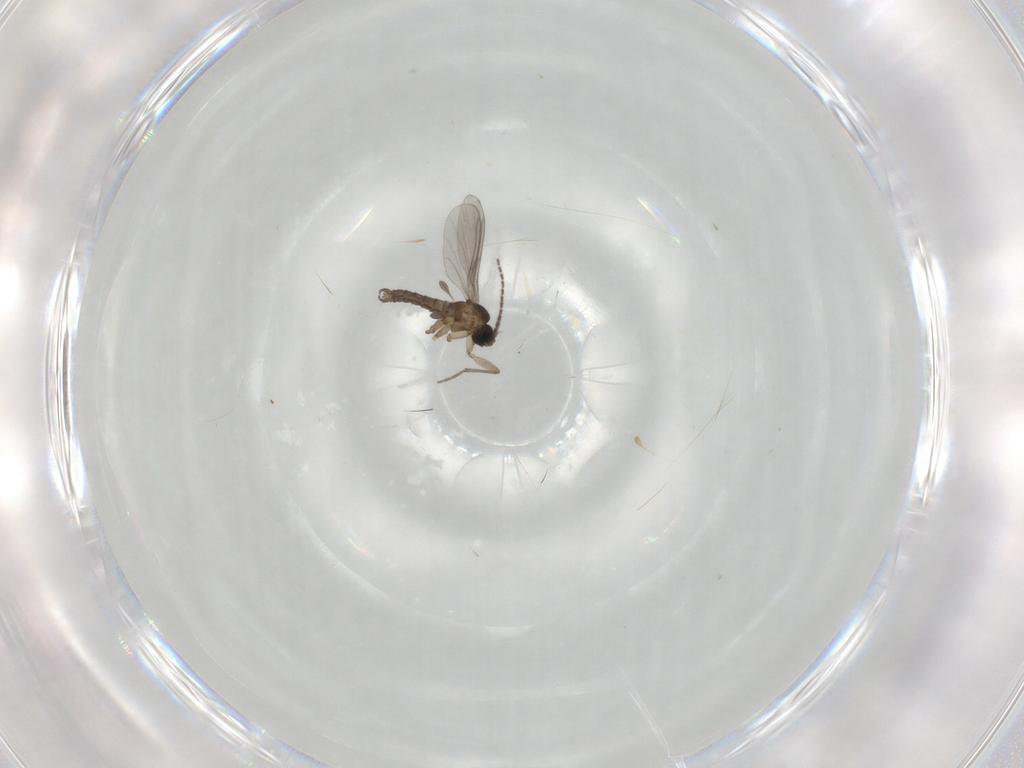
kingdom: Animalia
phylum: Arthropoda
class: Insecta
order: Diptera
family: Sciaridae
